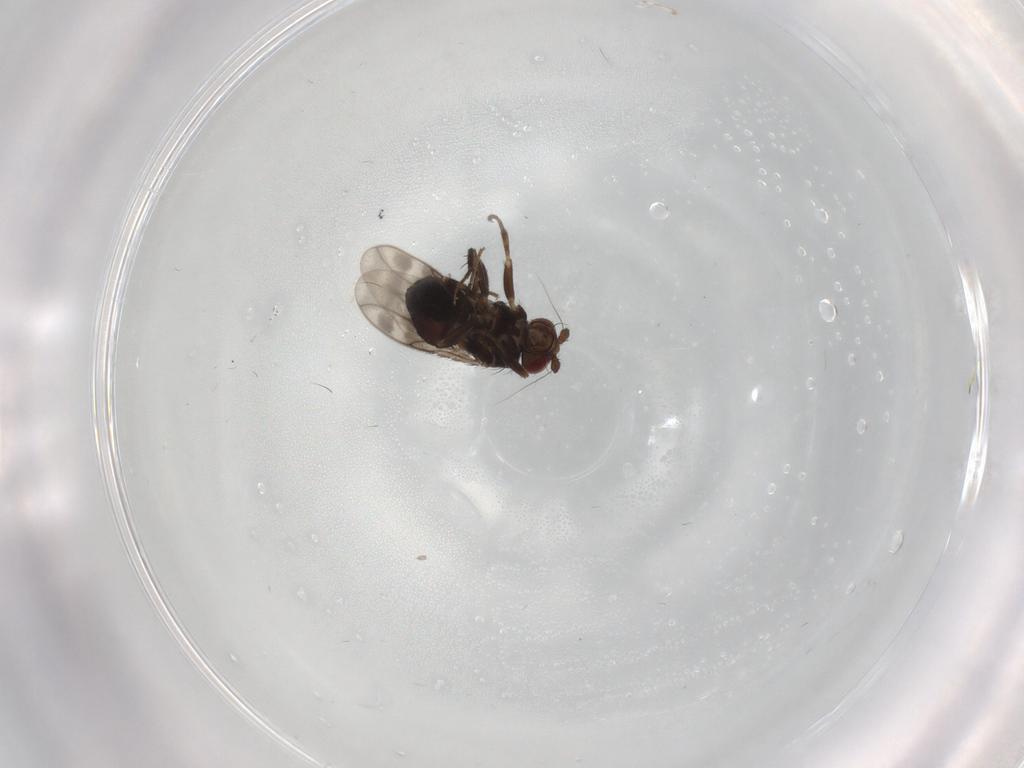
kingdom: Animalia
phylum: Arthropoda
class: Insecta
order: Diptera
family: Sphaeroceridae
